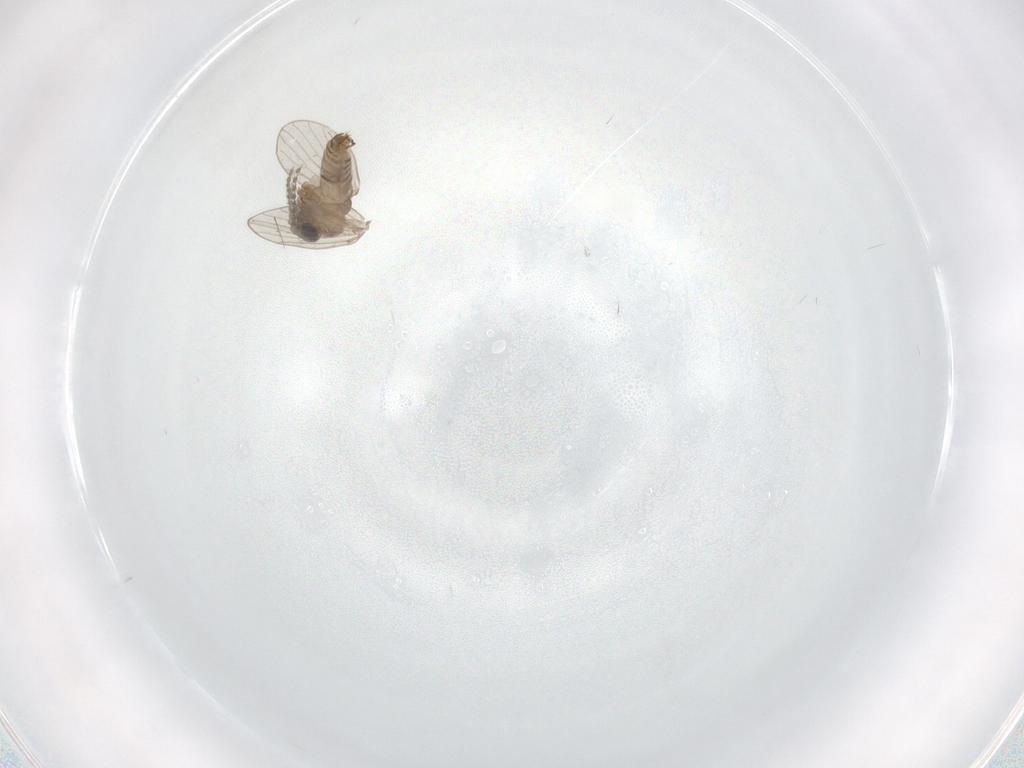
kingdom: Animalia
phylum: Arthropoda
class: Insecta
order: Diptera
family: Psychodidae
